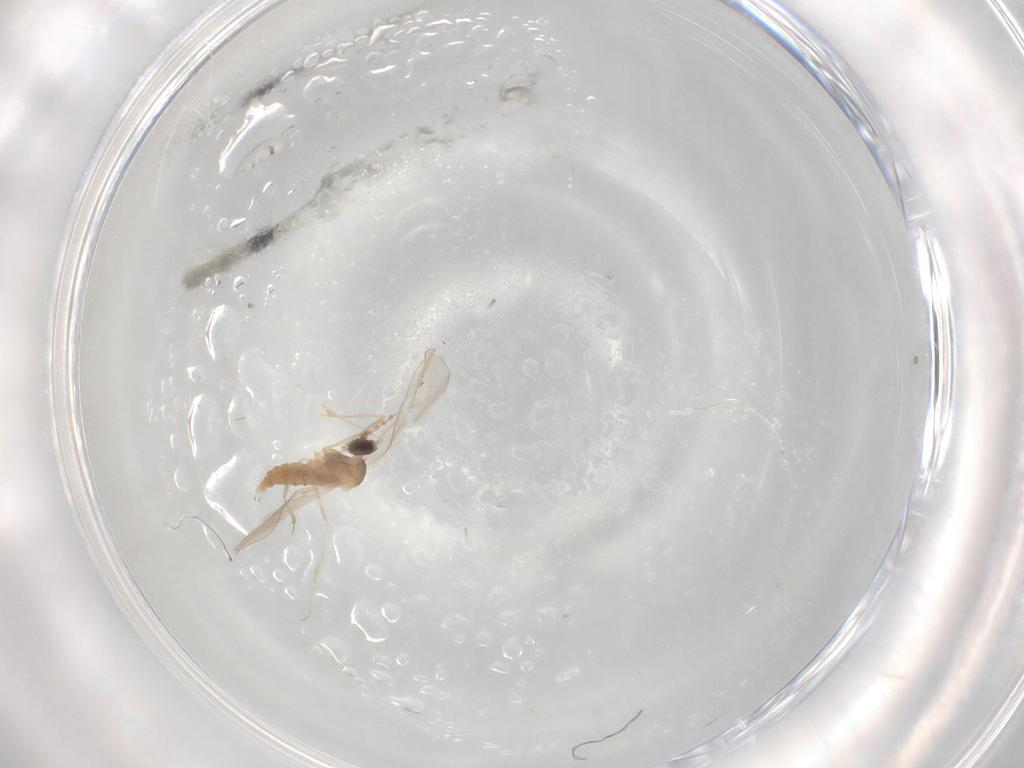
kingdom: Animalia
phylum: Arthropoda
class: Insecta
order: Diptera
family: Cecidomyiidae
